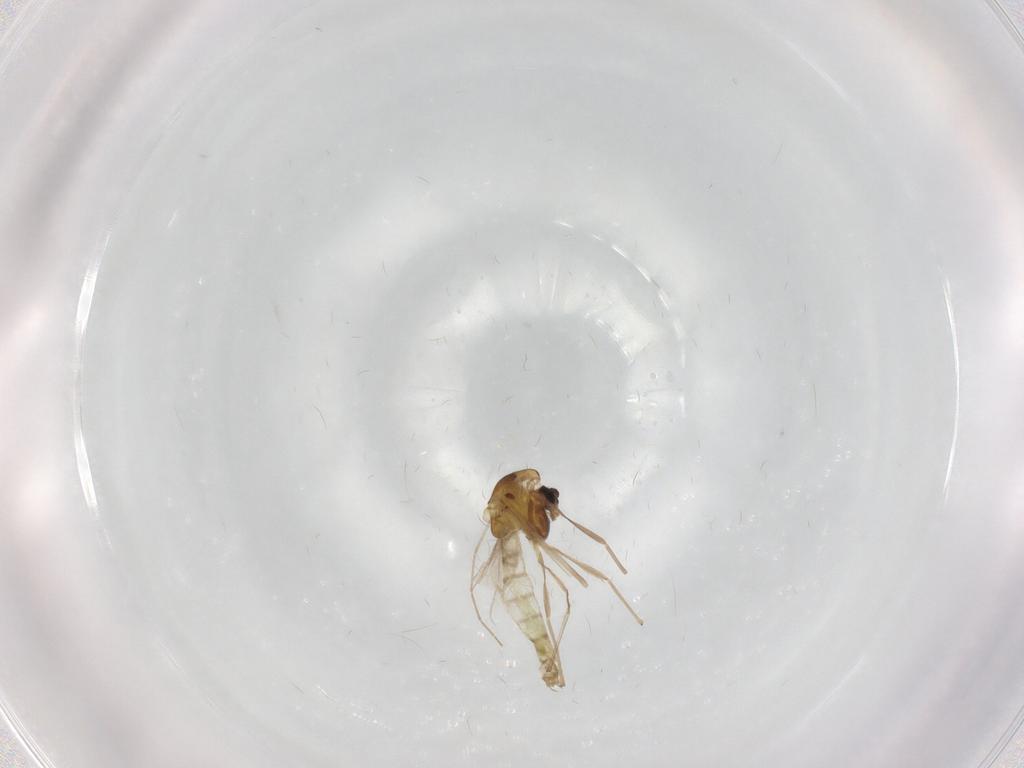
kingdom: Animalia
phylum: Arthropoda
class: Insecta
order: Diptera
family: Chironomidae
